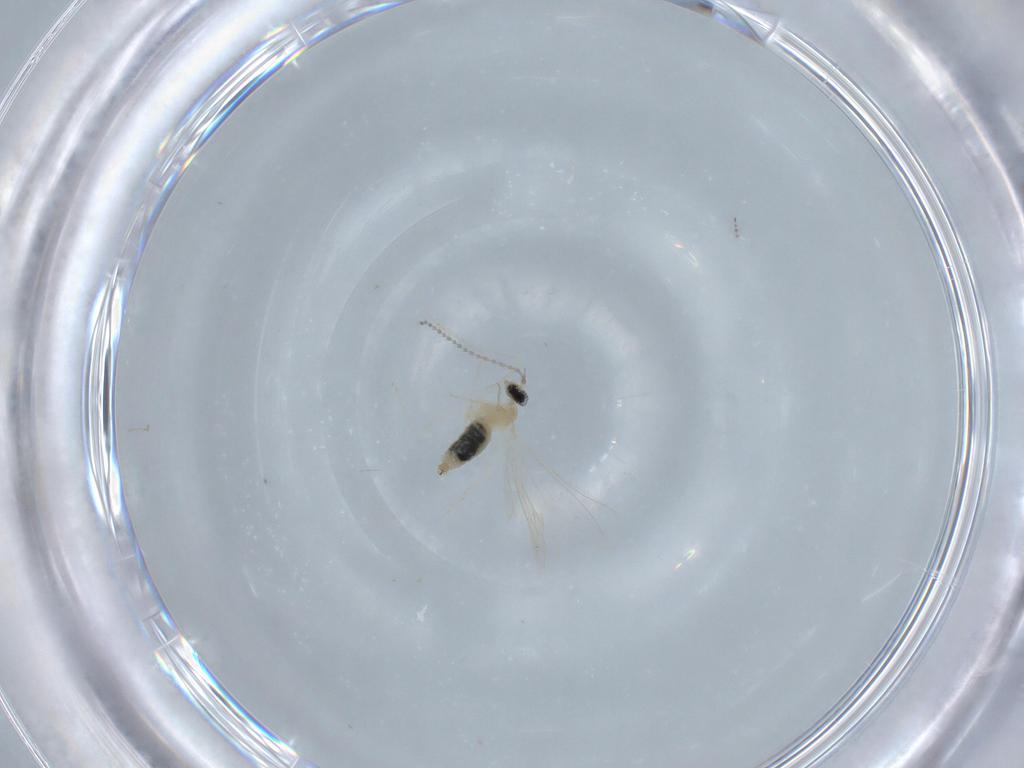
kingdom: Animalia
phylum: Arthropoda
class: Insecta
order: Diptera
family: Cecidomyiidae
